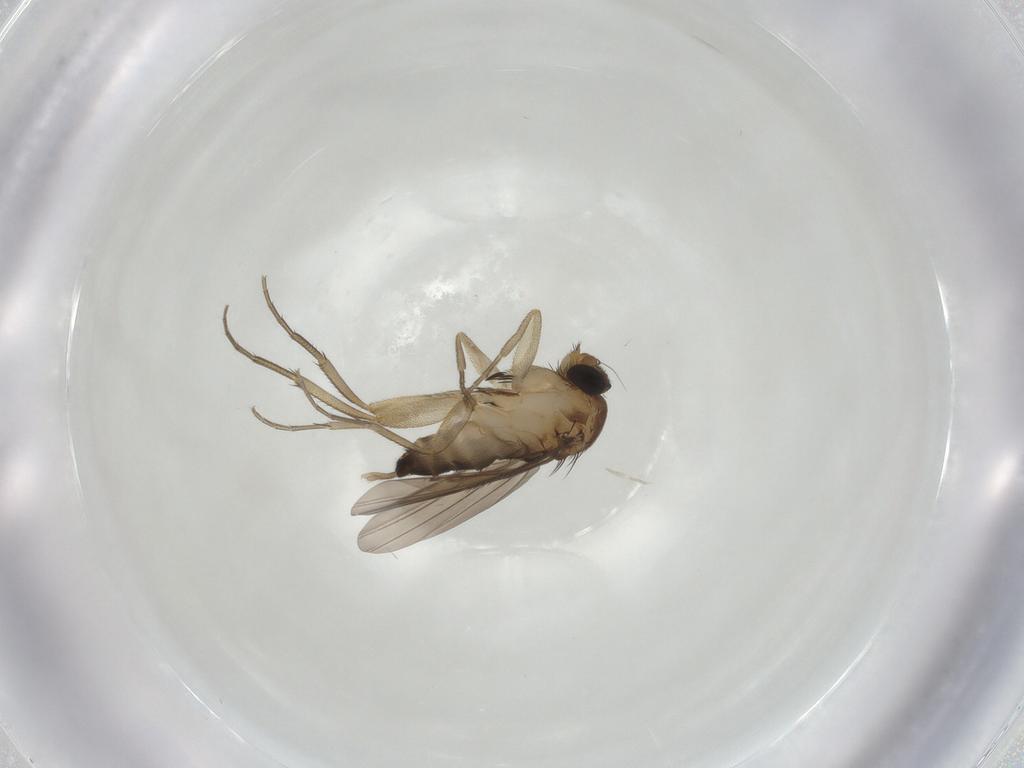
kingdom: Animalia
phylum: Arthropoda
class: Insecta
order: Diptera
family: Phoridae
